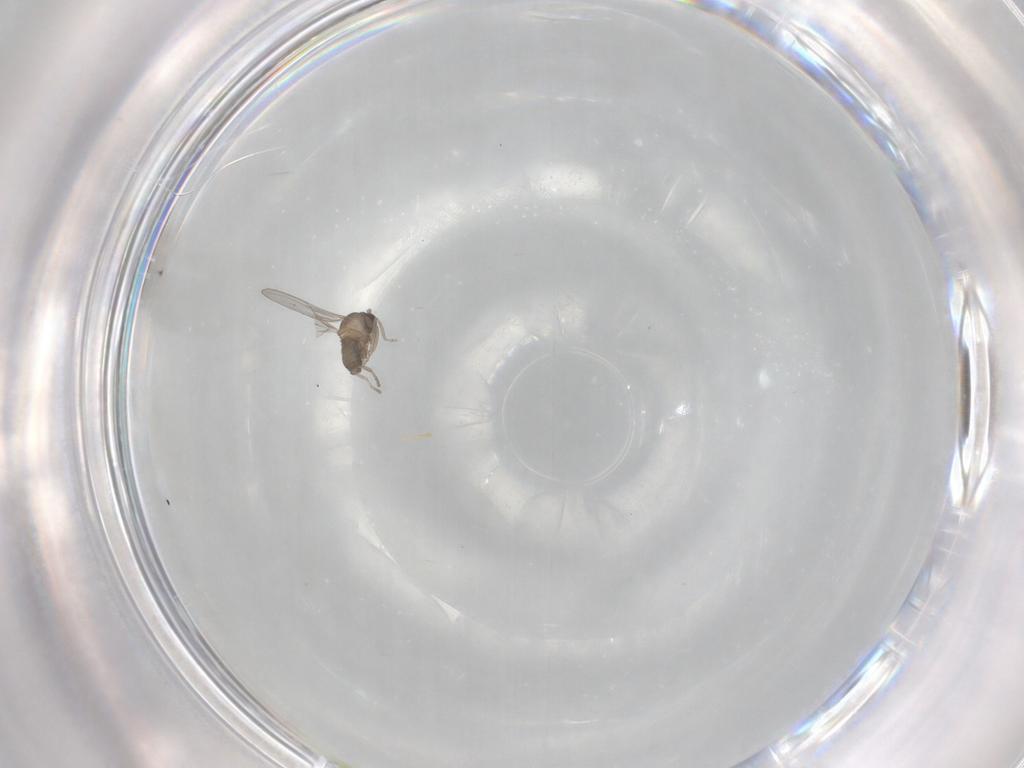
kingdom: Animalia
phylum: Arthropoda
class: Insecta
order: Diptera
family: Cecidomyiidae
